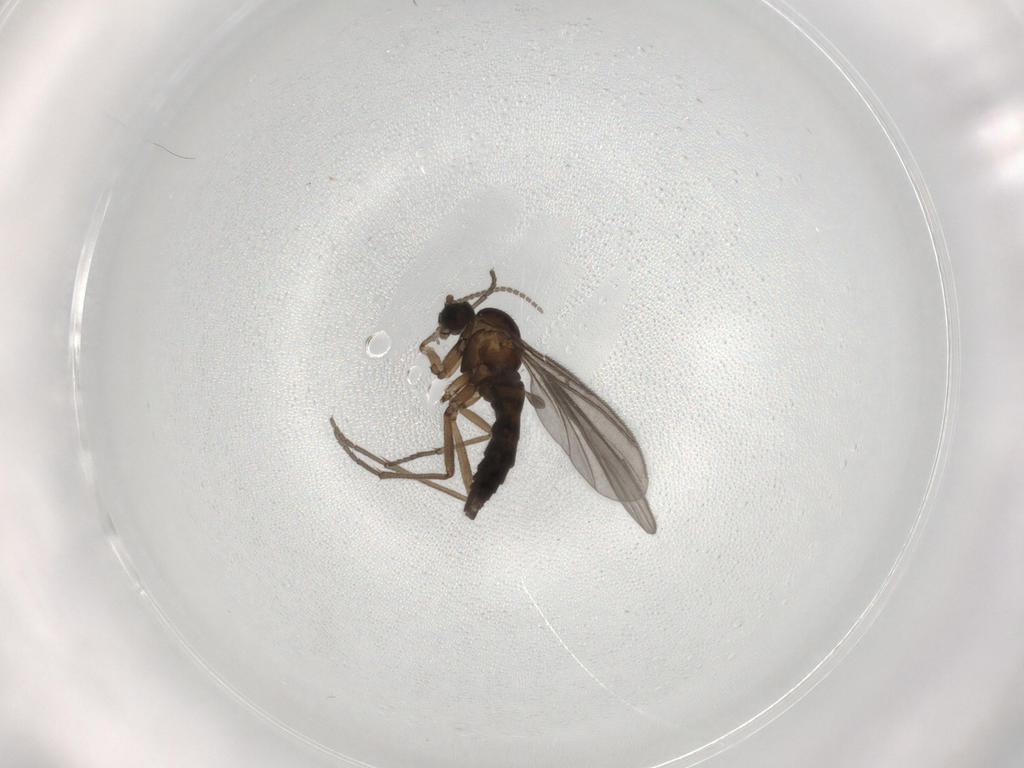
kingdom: Animalia
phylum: Arthropoda
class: Insecta
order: Diptera
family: Sciaridae
